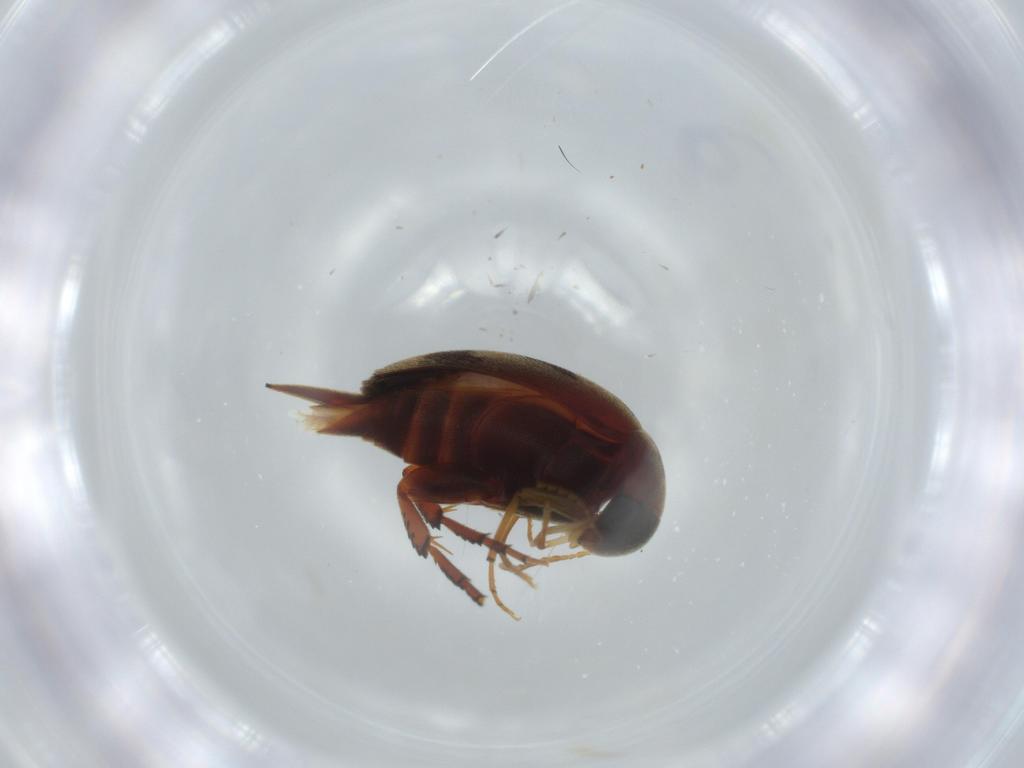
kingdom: Animalia
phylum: Arthropoda
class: Insecta
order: Coleoptera
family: Mordellidae
